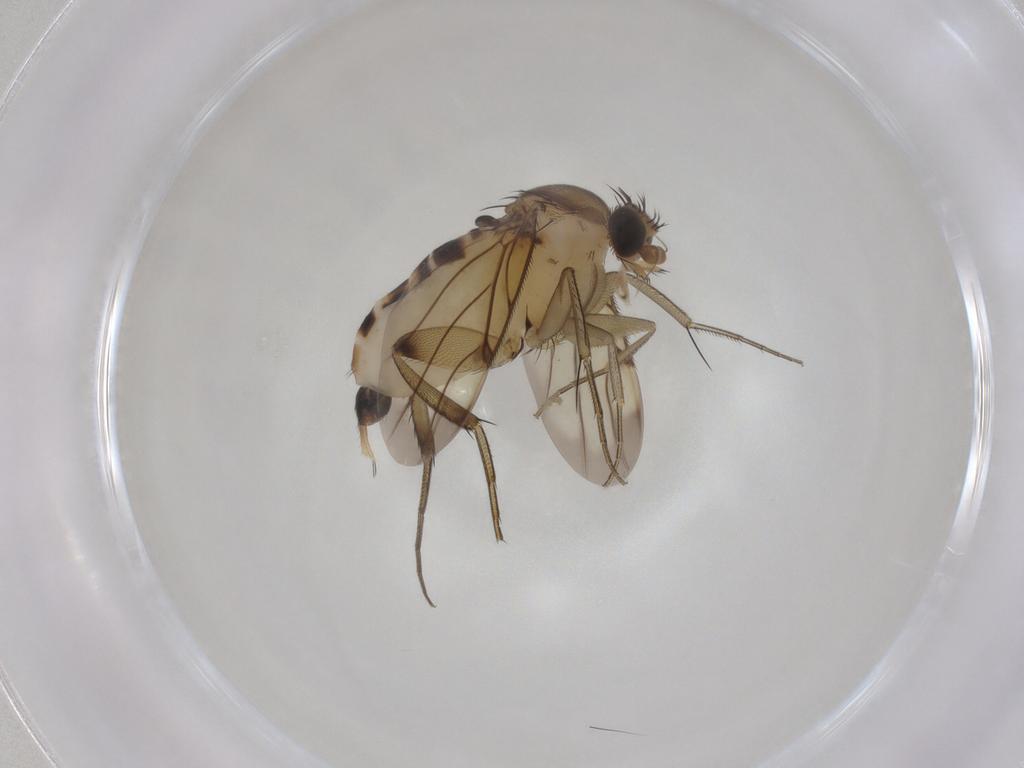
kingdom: Animalia
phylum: Arthropoda
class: Insecta
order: Diptera
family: Phoridae
